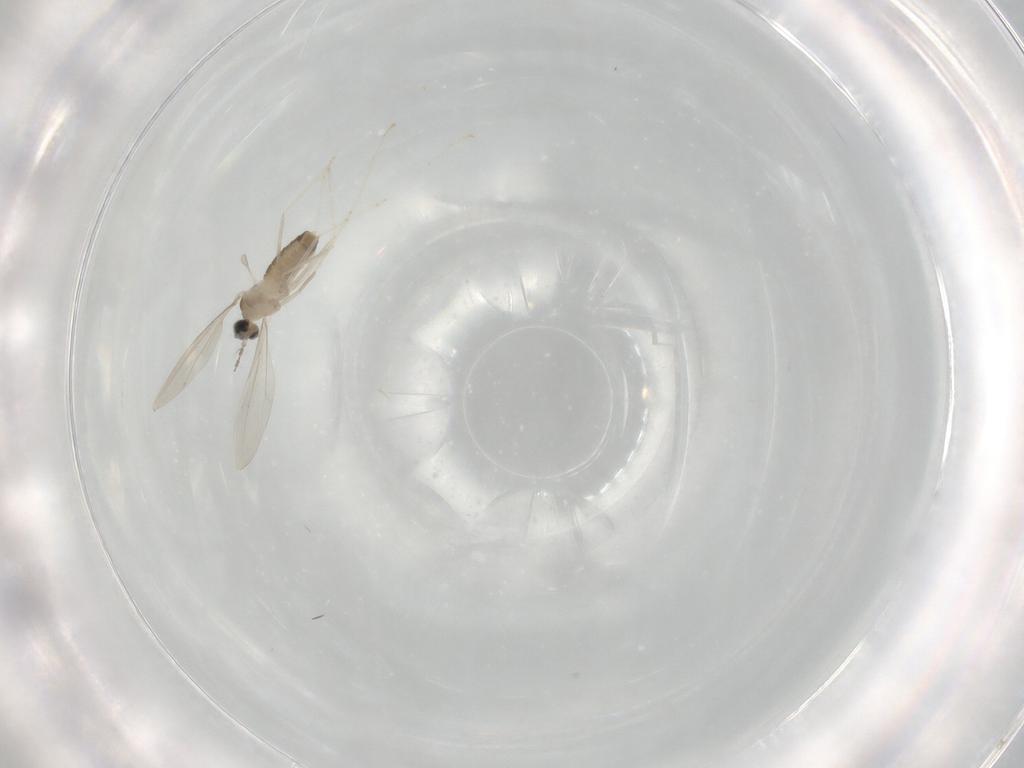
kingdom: Animalia
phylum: Arthropoda
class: Insecta
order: Diptera
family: Cecidomyiidae
